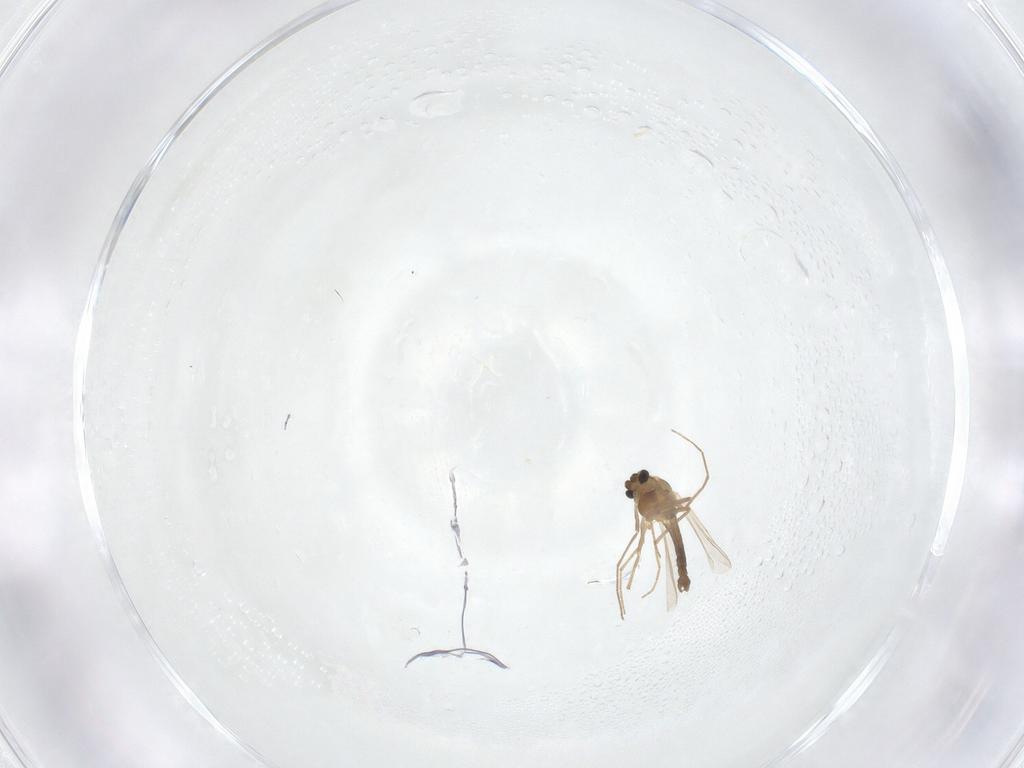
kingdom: Animalia
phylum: Arthropoda
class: Insecta
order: Diptera
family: Chironomidae
